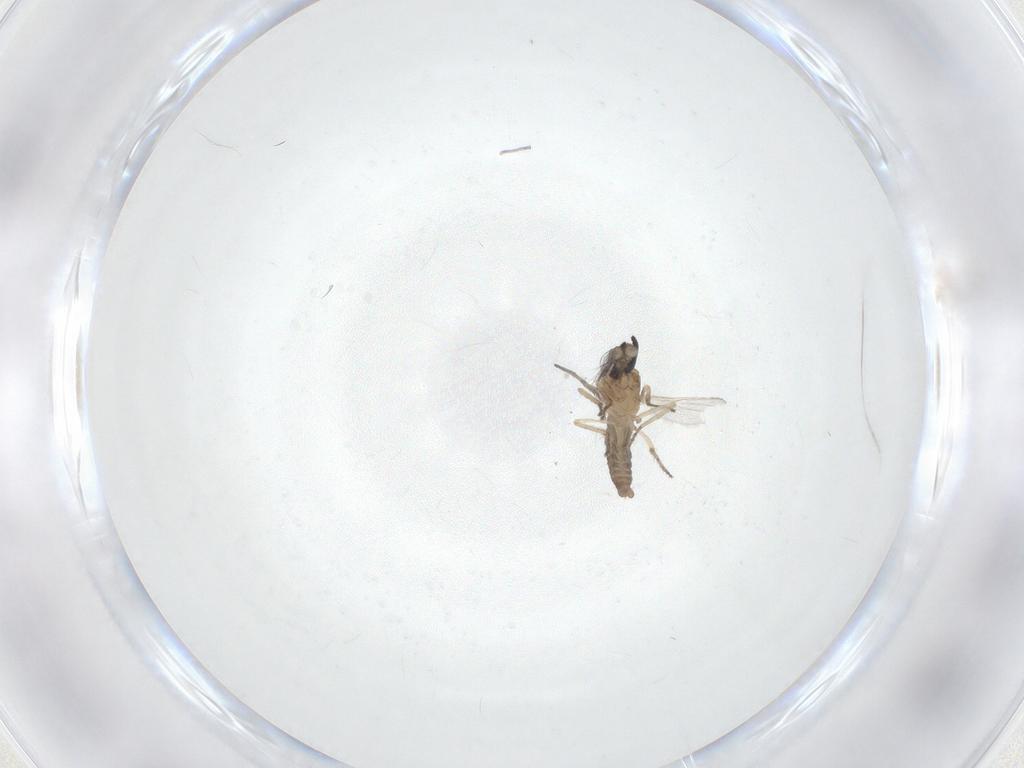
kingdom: Animalia
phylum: Arthropoda
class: Insecta
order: Diptera
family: Ceratopogonidae
